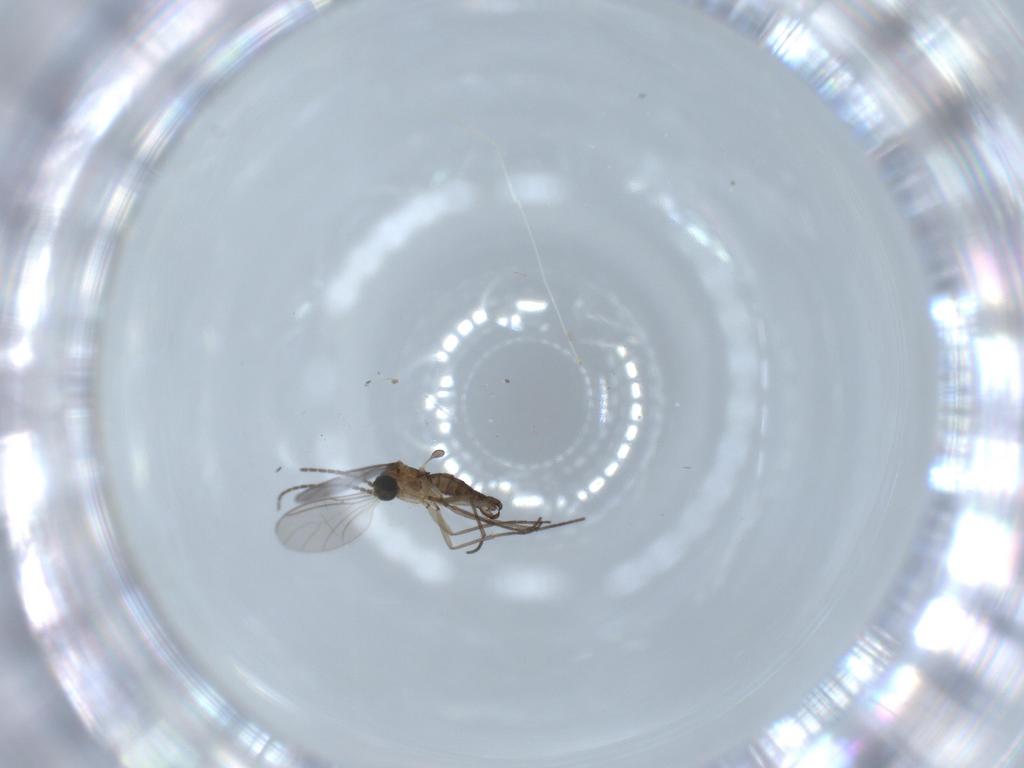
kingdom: Animalia
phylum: Arthropoda
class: Insecta
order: Diptera
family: Sciaridae
